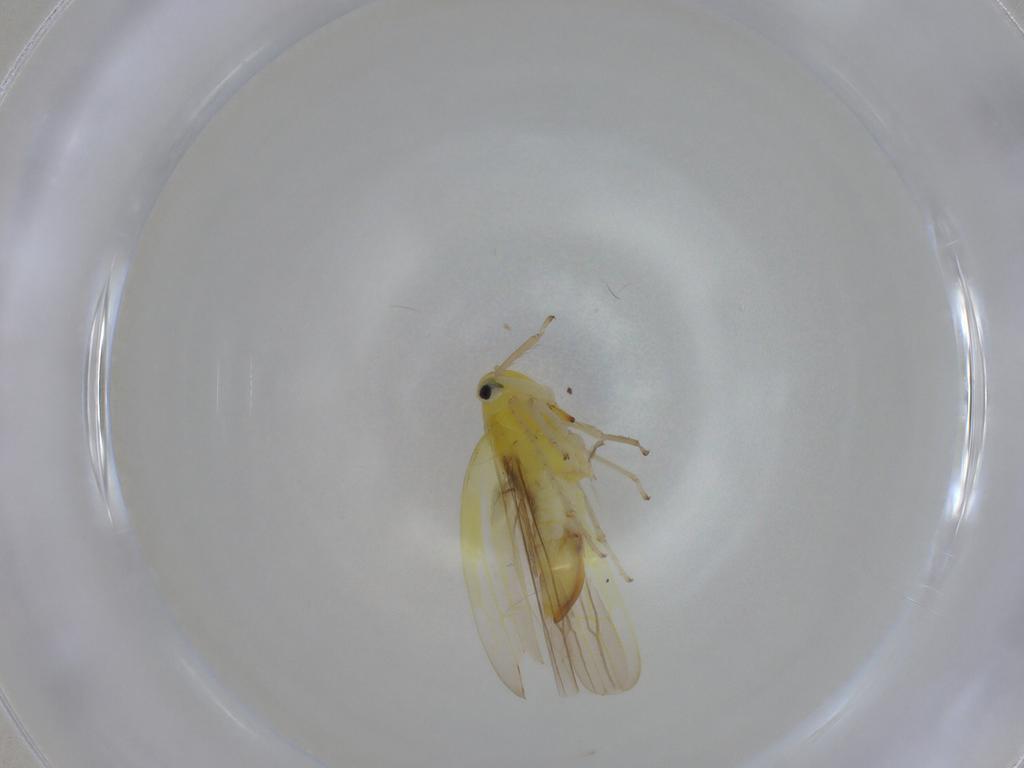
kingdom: Animalia
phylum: Arthropoda
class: Insecta
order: Hemiptera
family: Cicadellidae
